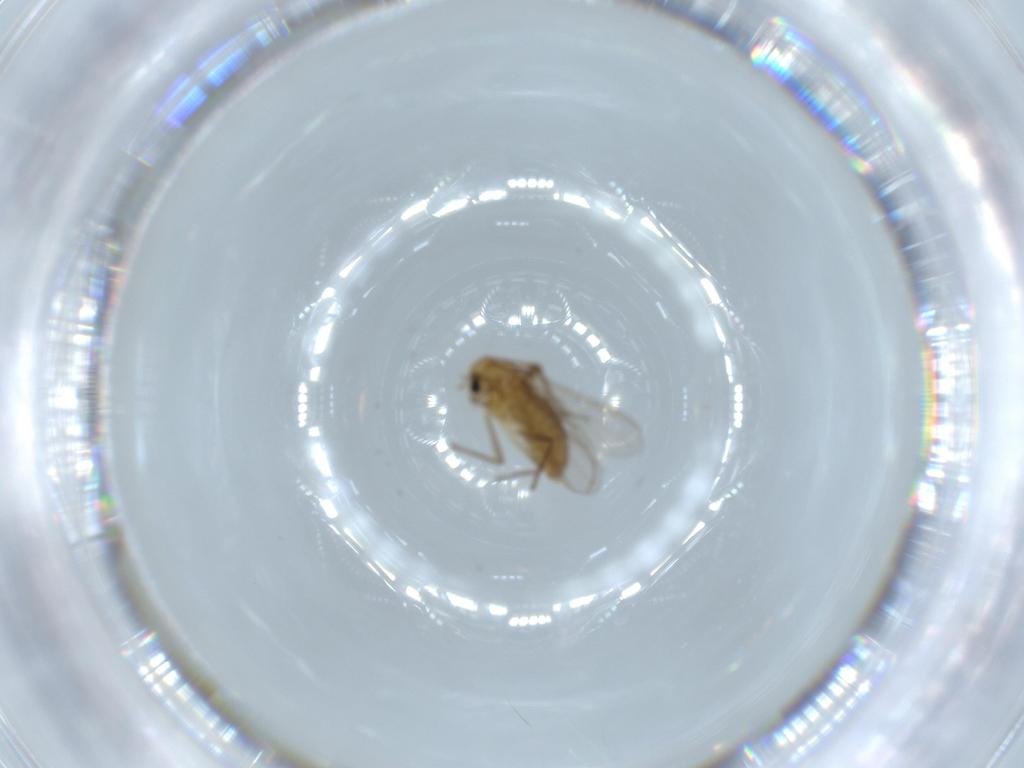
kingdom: Animalia
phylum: Arthropoda
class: Insecta
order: Diptera
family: Chironomidae
